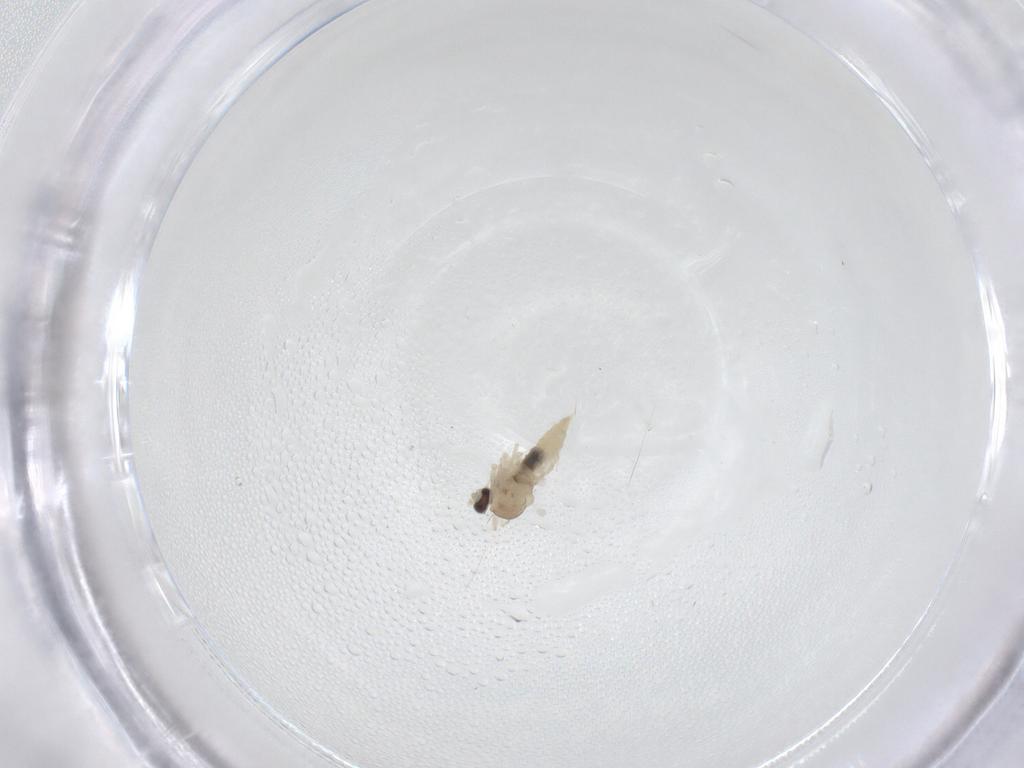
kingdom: Animalia
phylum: Arthropoda
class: Insecta
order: Diptera
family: Cecidomyiidae
